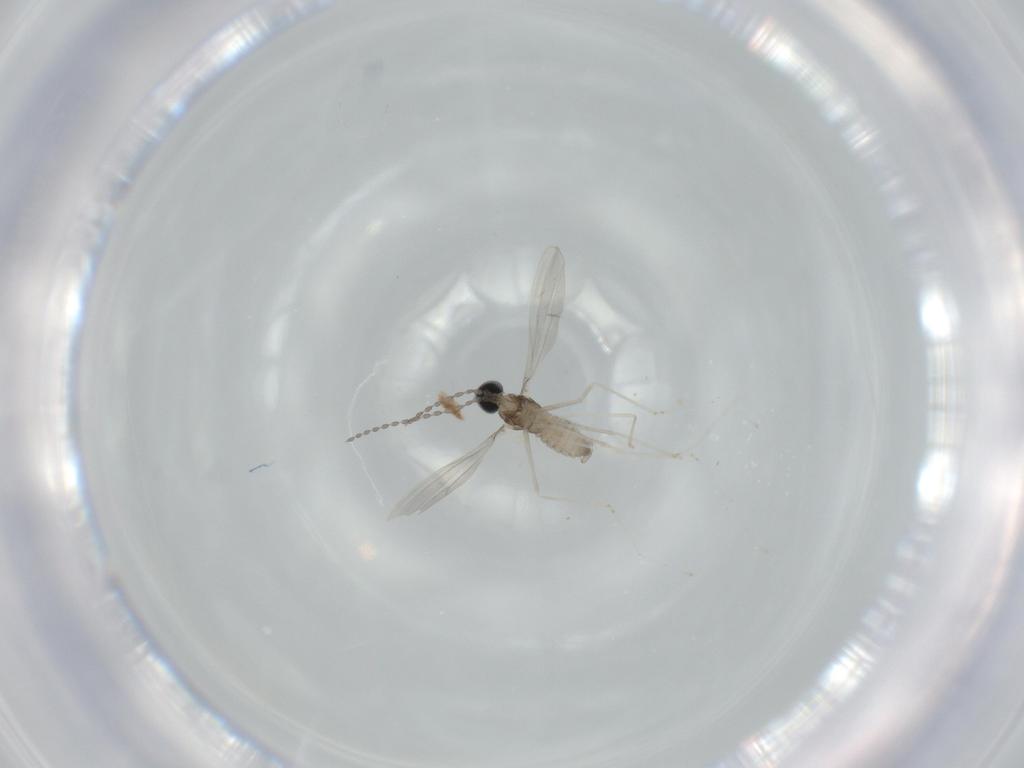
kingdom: Animalia
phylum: Arthropoda
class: Insecta
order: Diptera
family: Cecidomyiidae
